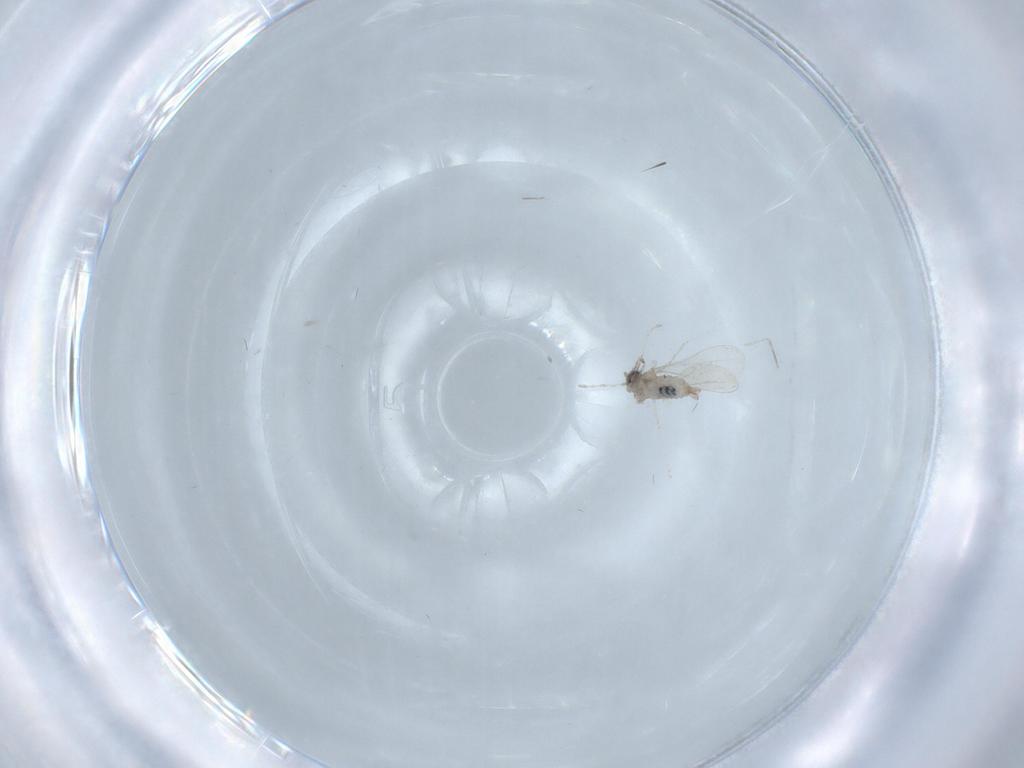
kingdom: Animalia
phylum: Arthropoda
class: Insecta
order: Diptera
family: Cecidomyiidae
